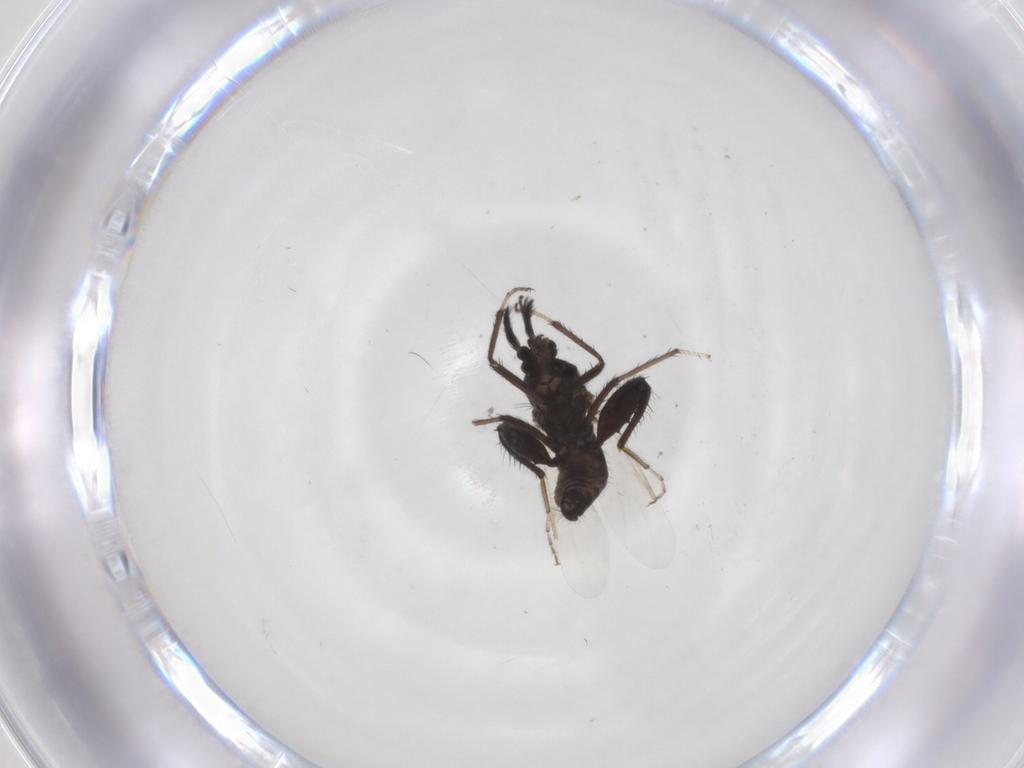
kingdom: Animalia
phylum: Arthropoda
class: Insecta
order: Diptera
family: Ceratopogonidae
